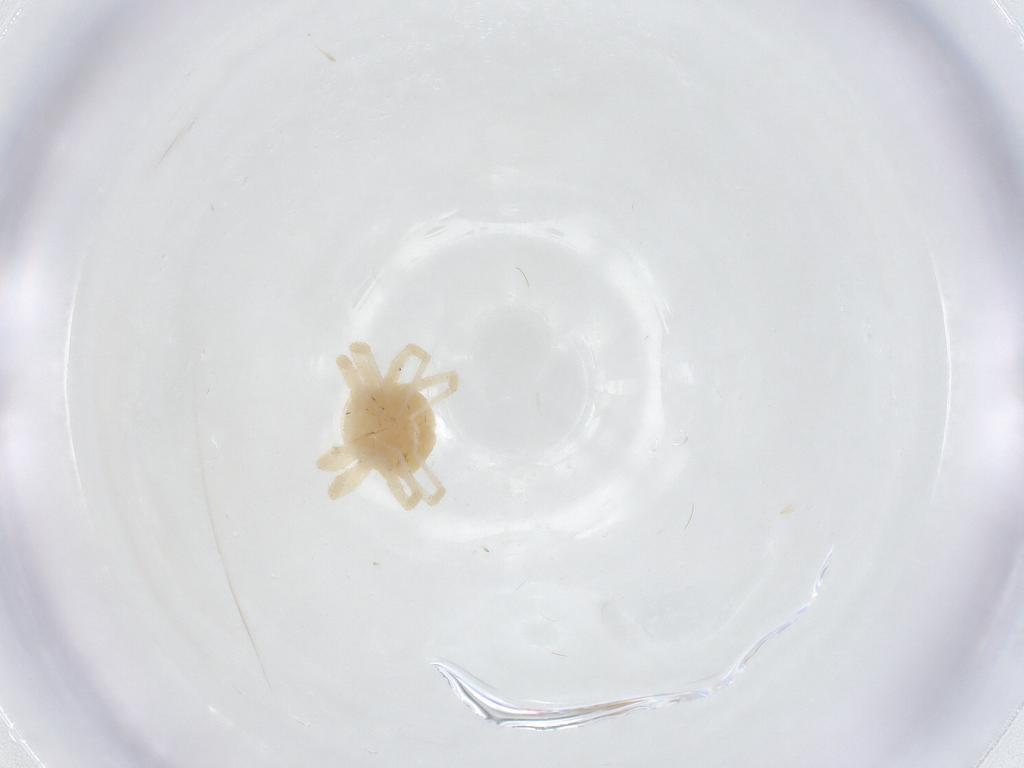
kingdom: Animalia
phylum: Arthropoda
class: Arachnida
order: Trombidiformes
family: Anystidae
